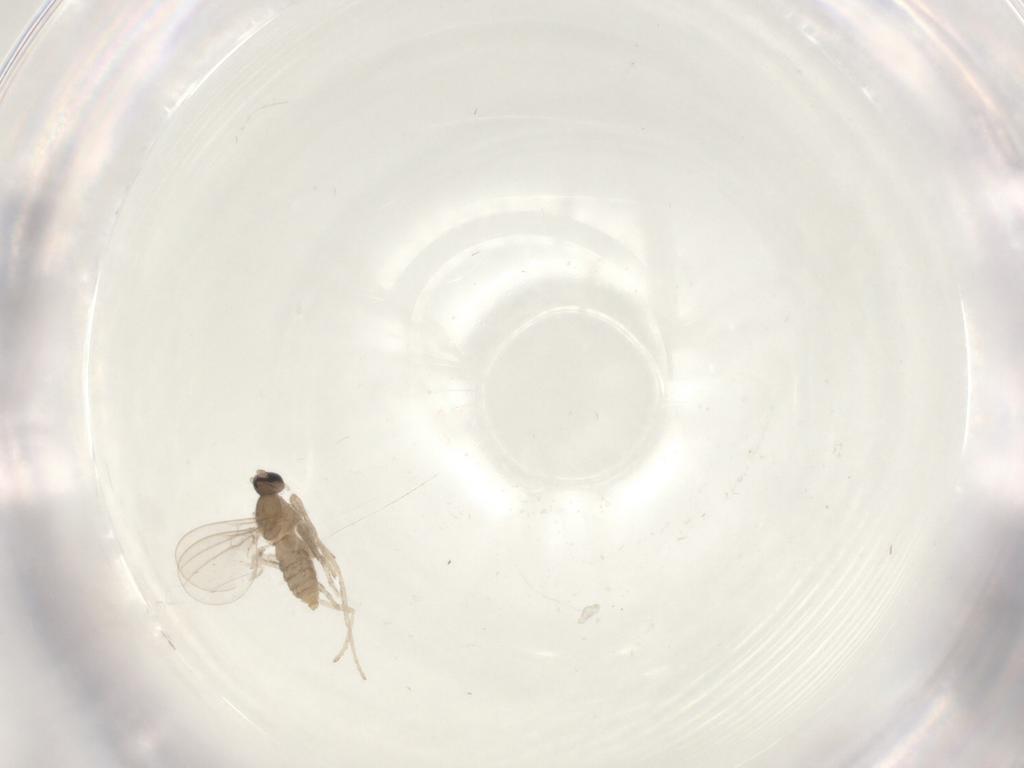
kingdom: Animalia
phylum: Arthropoda
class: Insecta
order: Diptera
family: Cecidomyiidae
